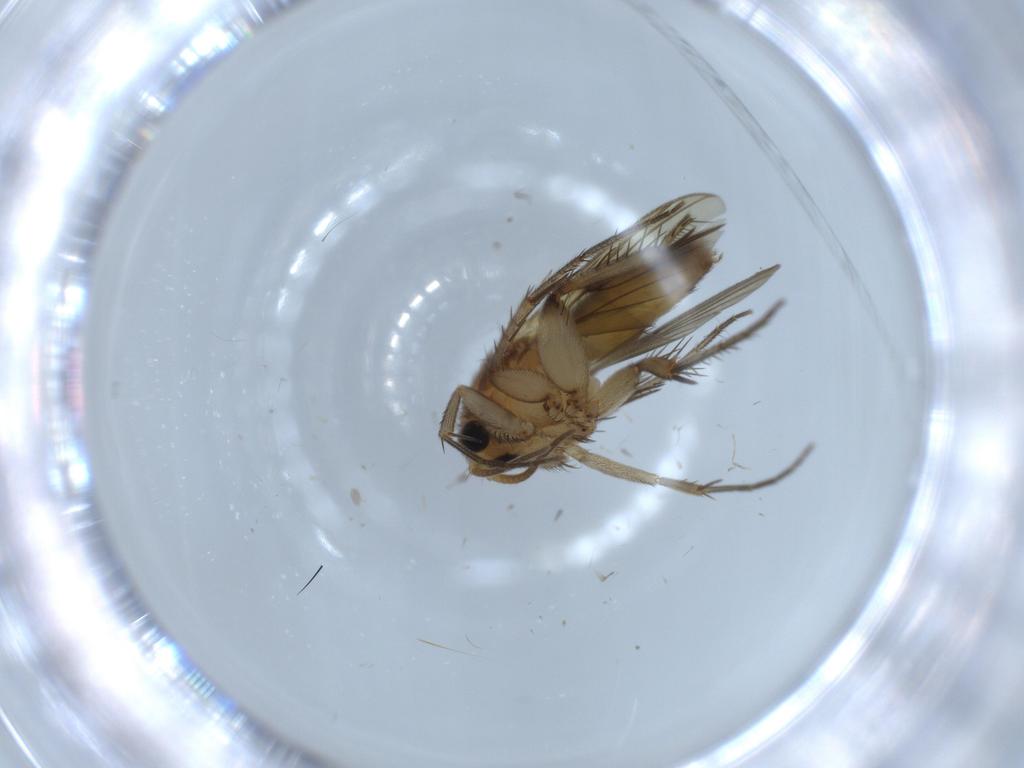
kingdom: Animalia
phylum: Arthropoda
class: Insecta
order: Diptera
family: Mycetophilidae
